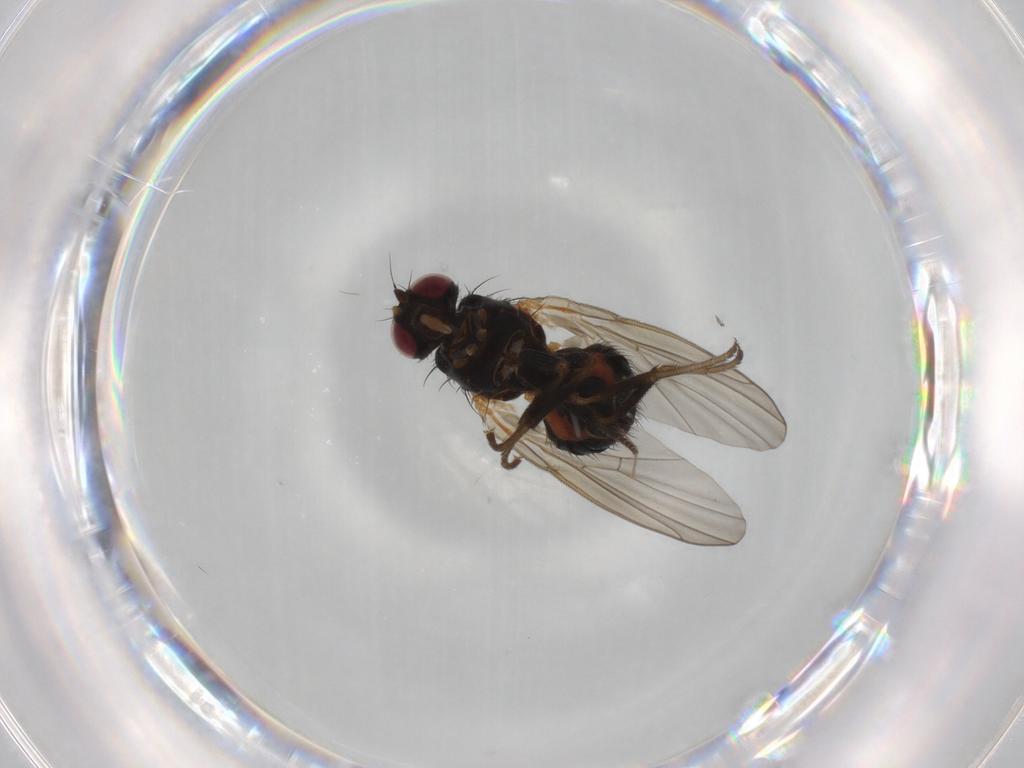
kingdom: Animalia
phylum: Arthropoda
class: Insecta
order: Diptera
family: Agromyzidae
